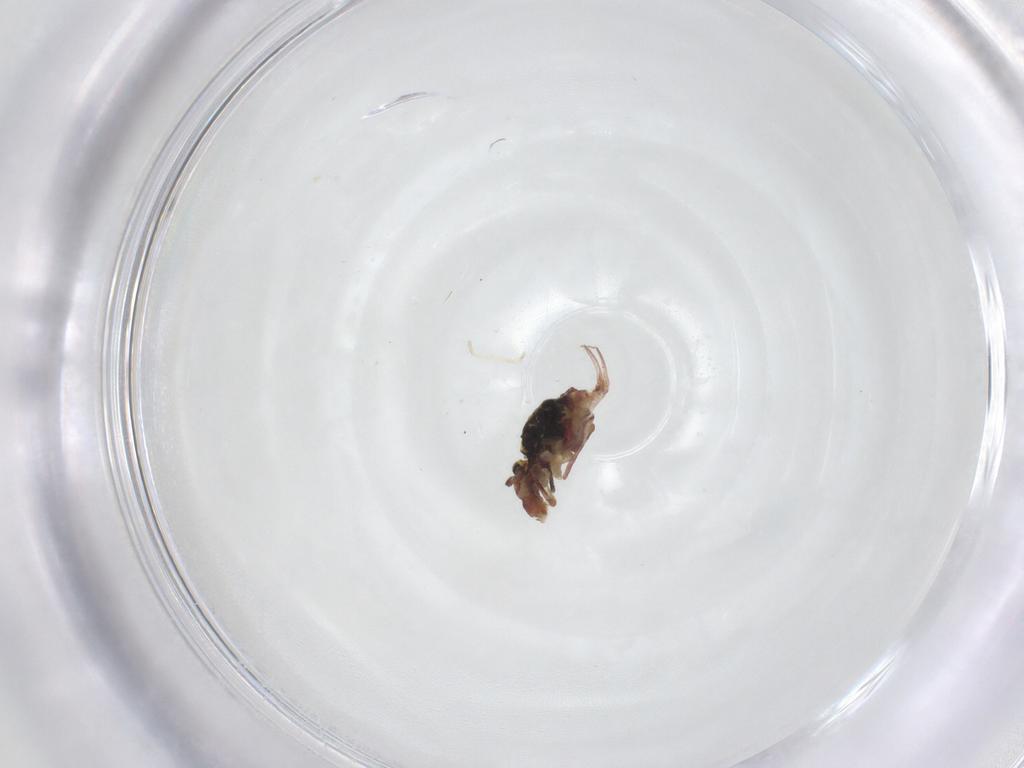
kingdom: Animalia
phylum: Arthropoda
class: Collembola
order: Symphypleona
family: Dicyrtomidae
